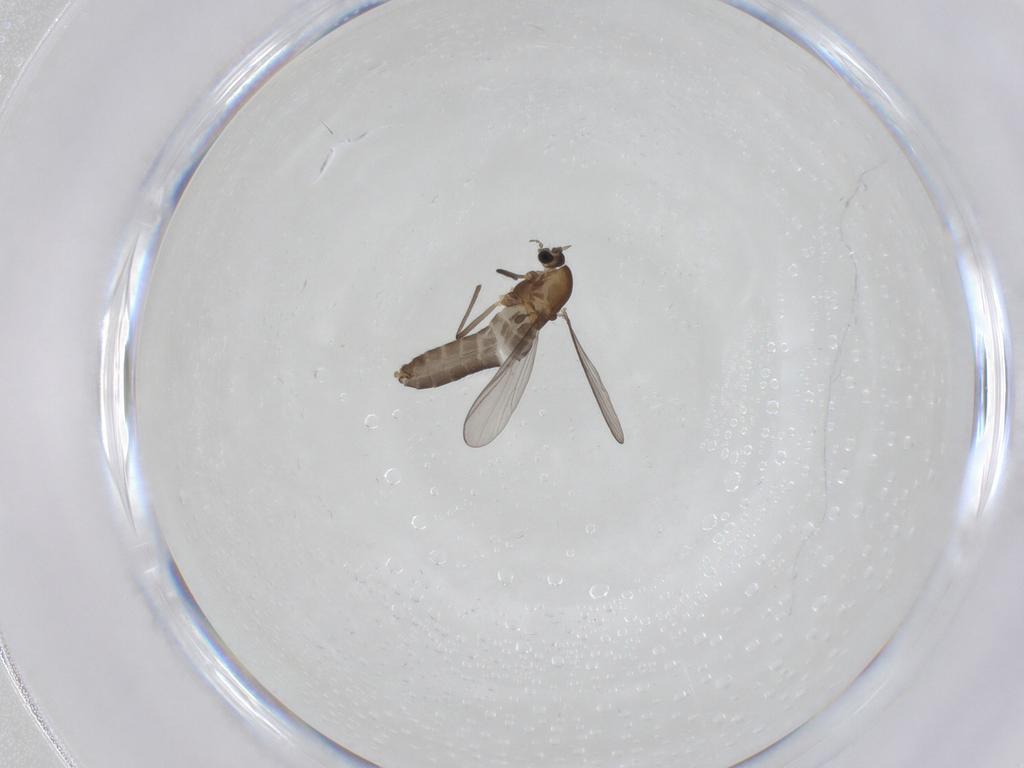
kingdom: Animalia
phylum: Arthropoda
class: Insecta
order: Diptera
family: Chironomidae
